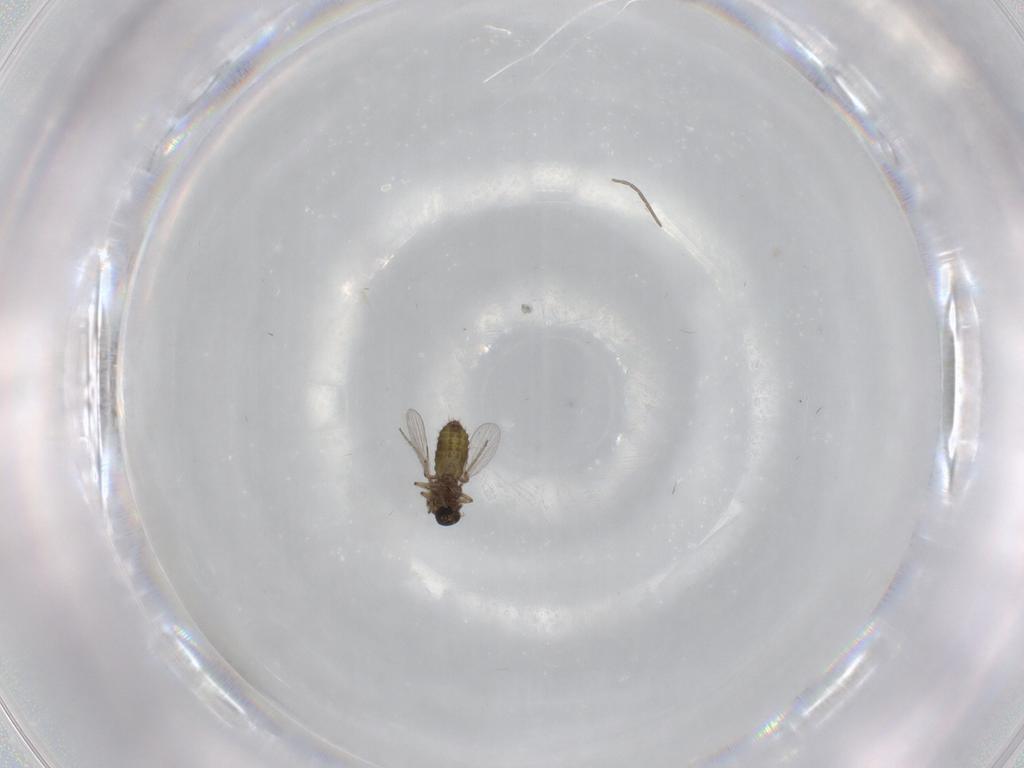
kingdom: Animalia
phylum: Arthropoda
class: Insecta
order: Diptera
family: Ceratopogonidae
